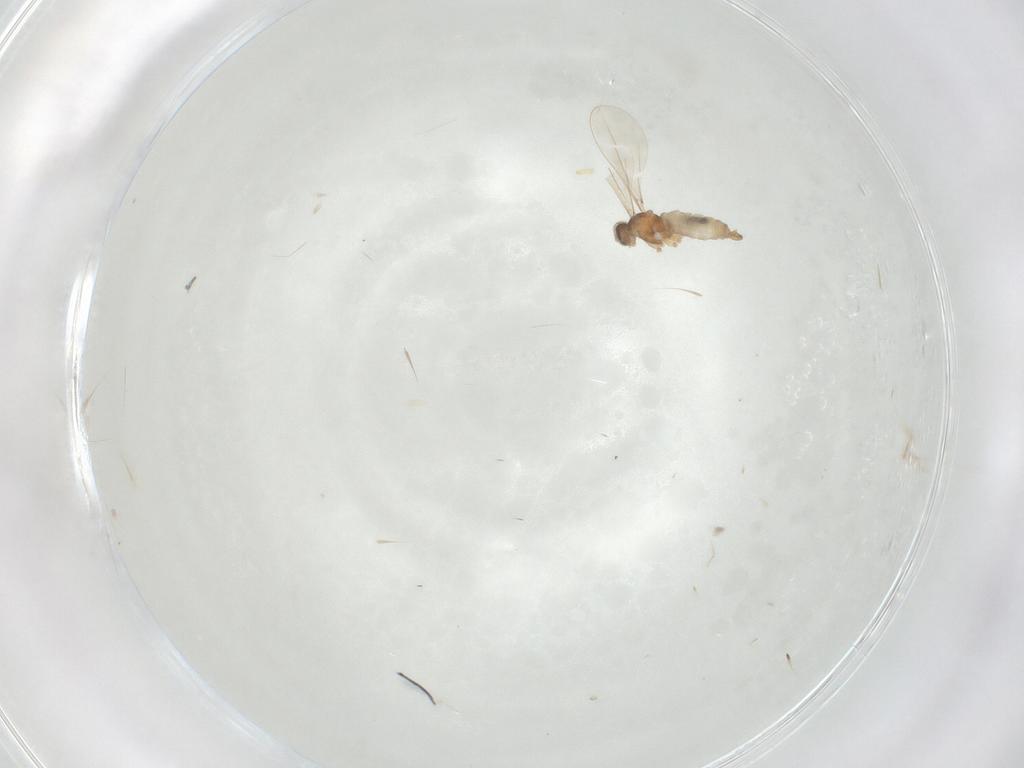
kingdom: Animalia
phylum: Arthropoda
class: Insecta
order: Diptera
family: Cecidomyiidae
